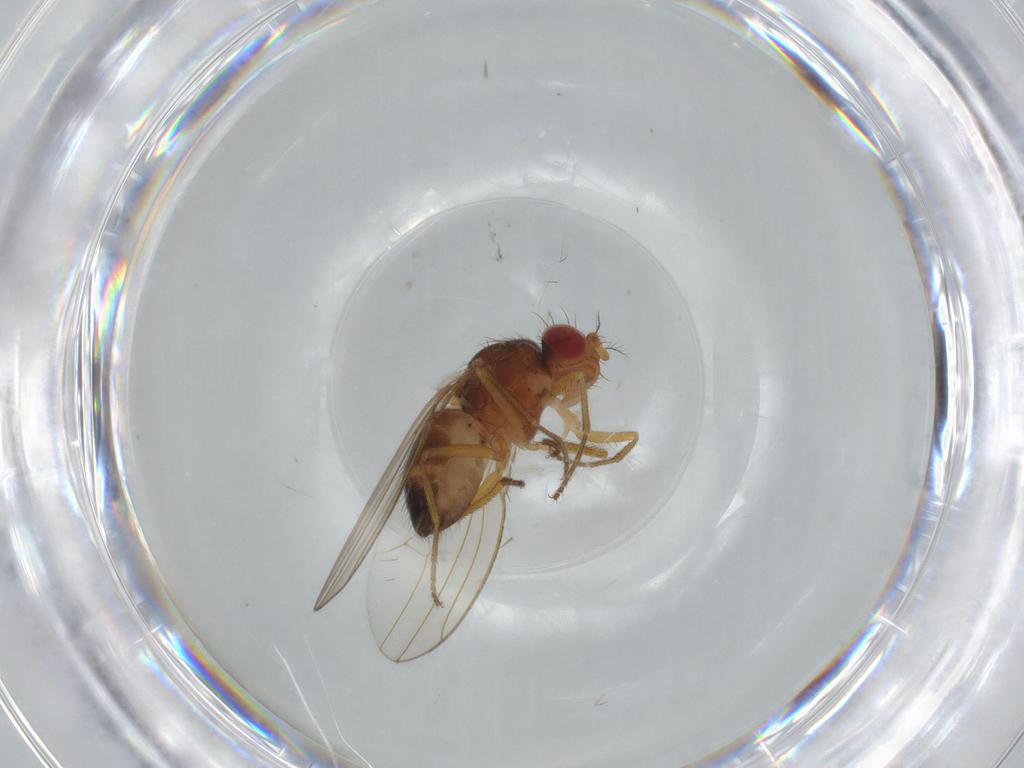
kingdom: Animalia
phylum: Arthropoda
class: Insecta
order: Diptera
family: Drosophilidae
